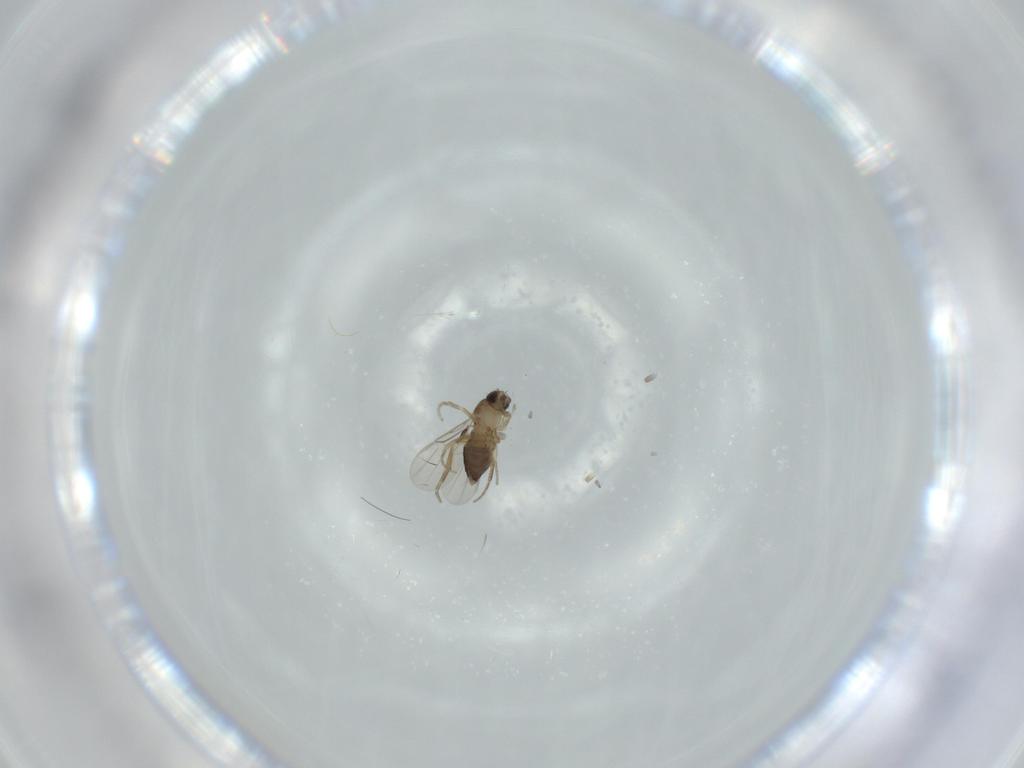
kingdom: Animalia
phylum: Arthropoda
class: Insecta
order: Diptera
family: Phoridae
